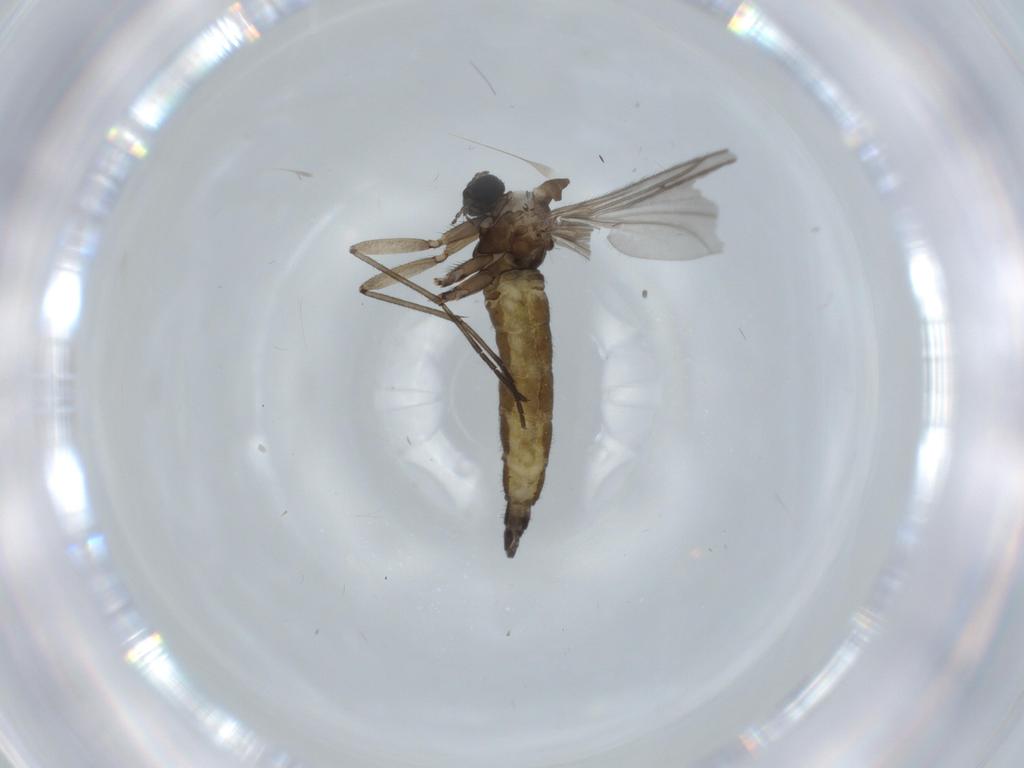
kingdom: Animalia
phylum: Arthropoda
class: Insecta
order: Diptera
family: Sciaridae
